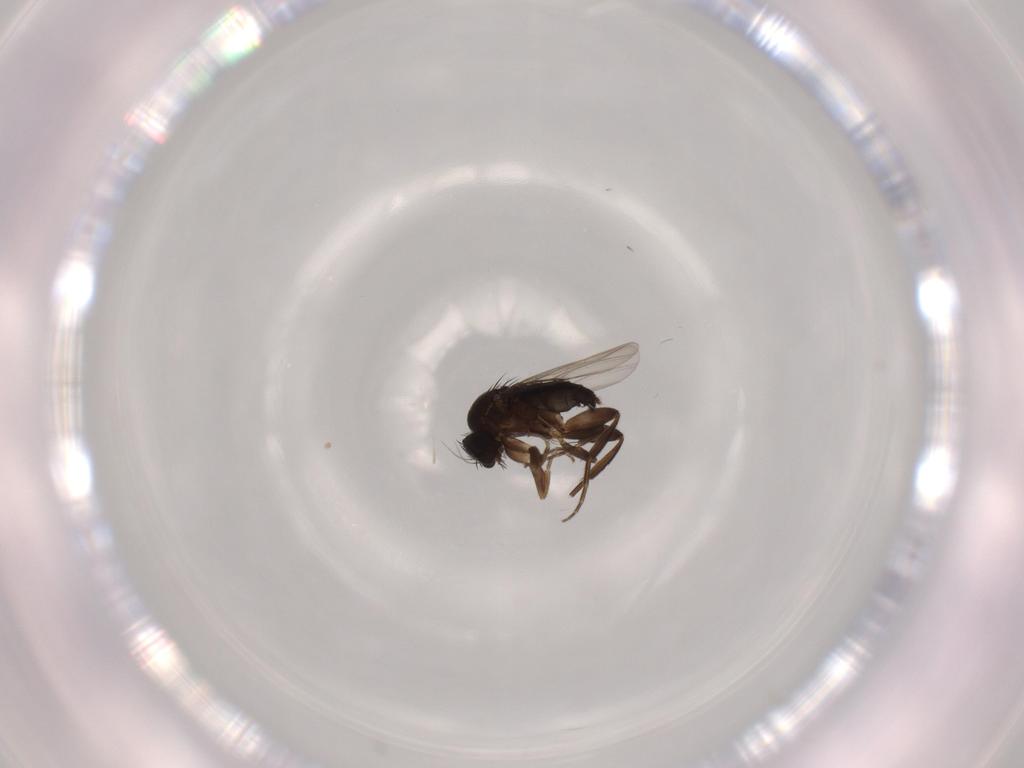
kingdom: Animalia
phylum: Arthropoda
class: Insecta
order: Diptera
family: Phoridae
